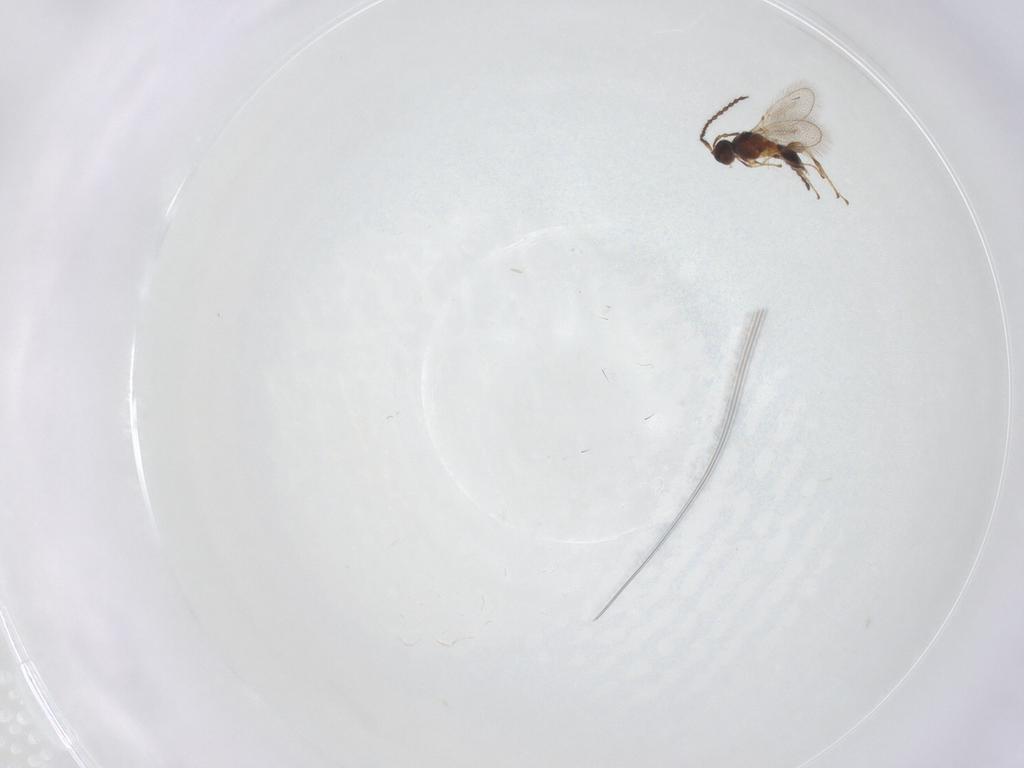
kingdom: Animalia
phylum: Arthropoda
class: Insecta
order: Hymenoptera
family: Diapriidae
